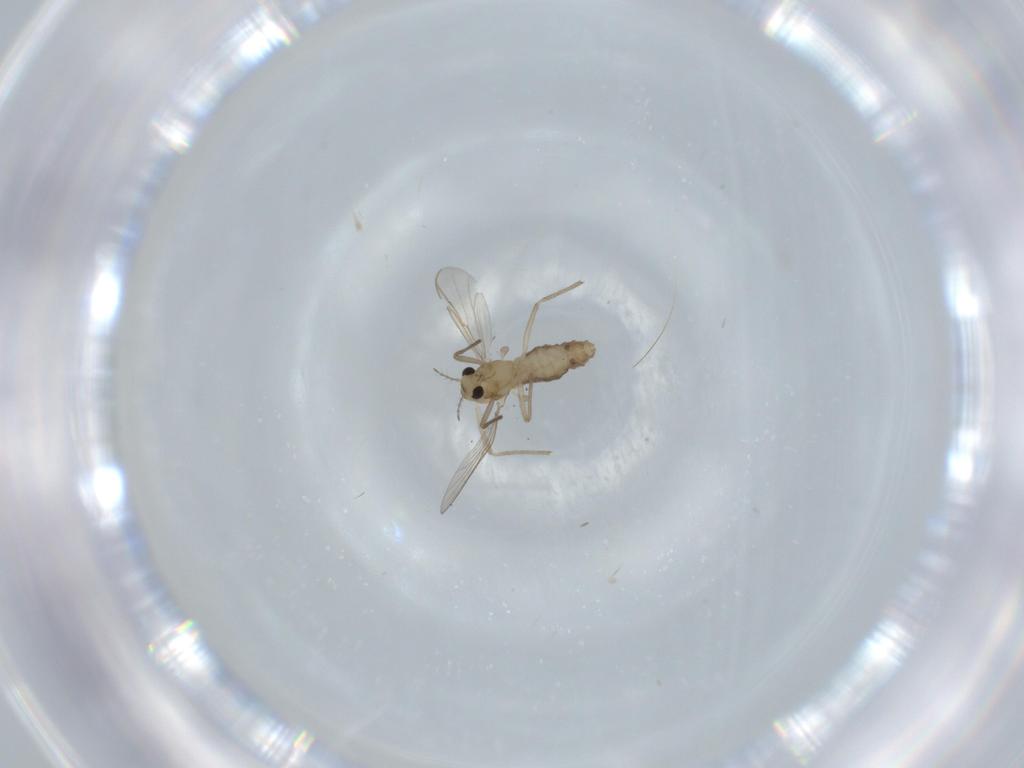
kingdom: Animalia
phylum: Arthropoda
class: Insecta
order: Diptera
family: Chironomidae
